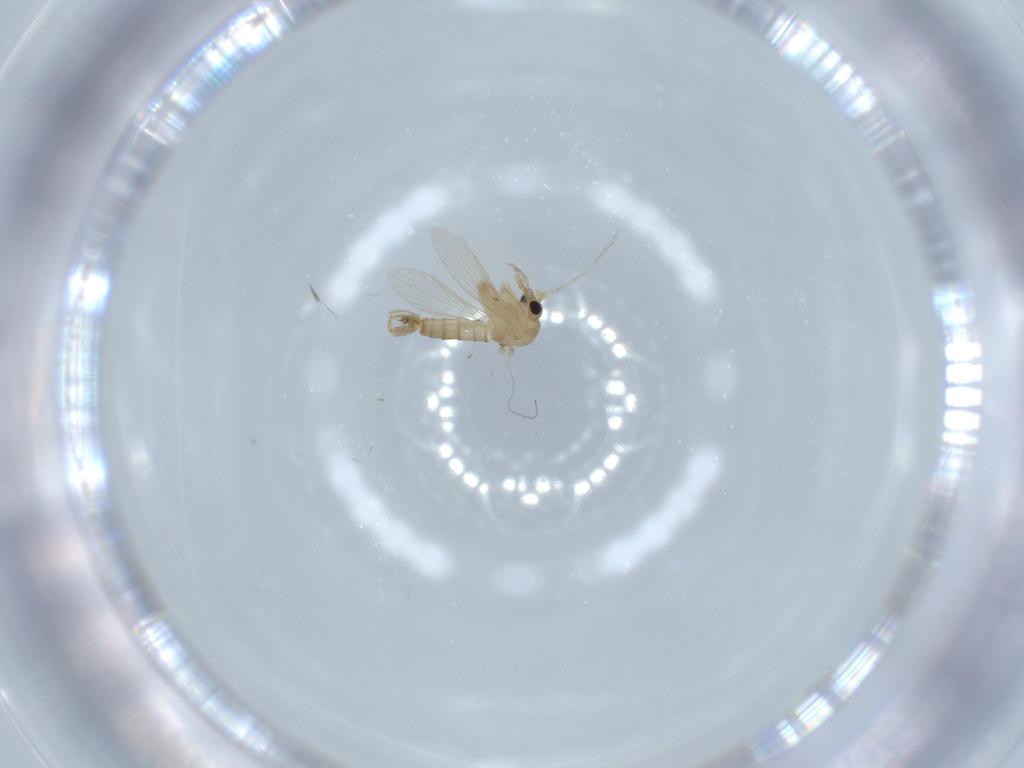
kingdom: Animalia
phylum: Arthropoda
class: Insecta
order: Diptera
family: Psychodidae
